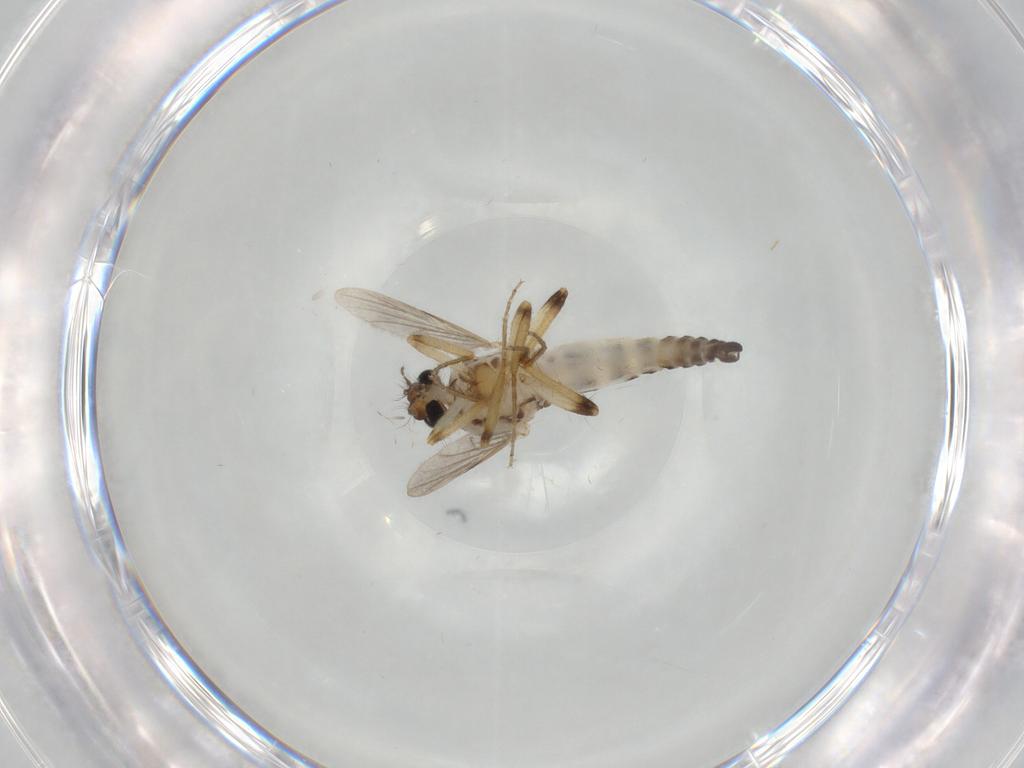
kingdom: Animalia
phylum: Arthropoda
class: Insecta
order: Diptera
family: Ceratopogonidae
